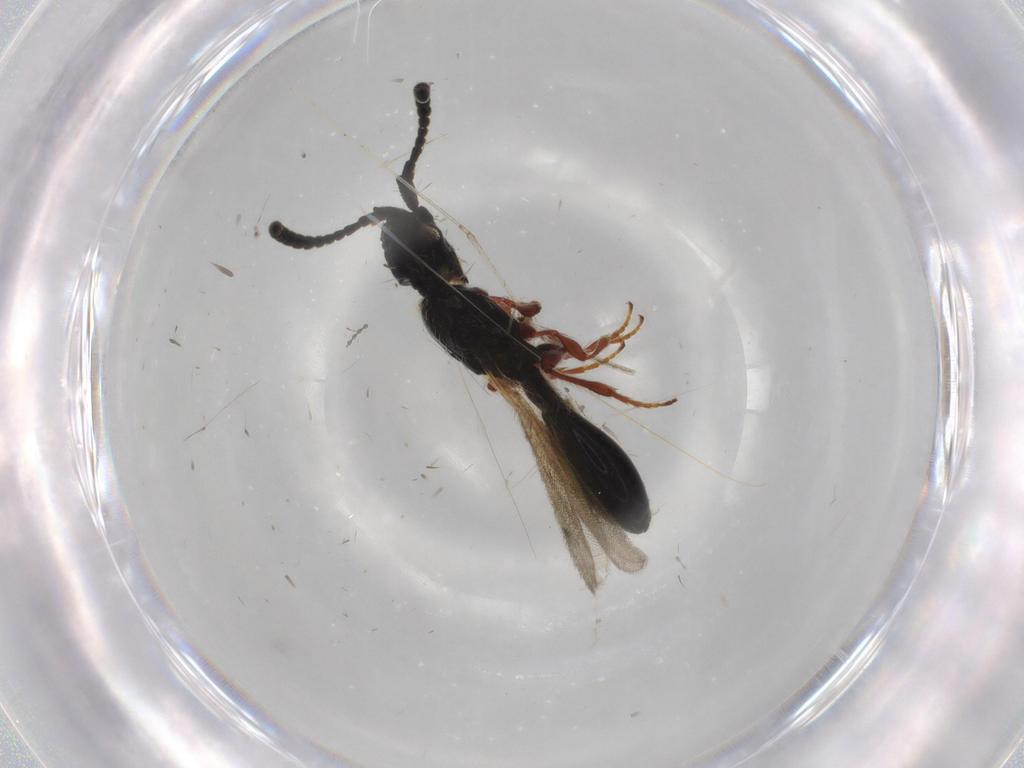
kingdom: Animalia
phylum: Arthropoda
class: Insecta
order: Hymenoptera
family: Diapriidae
